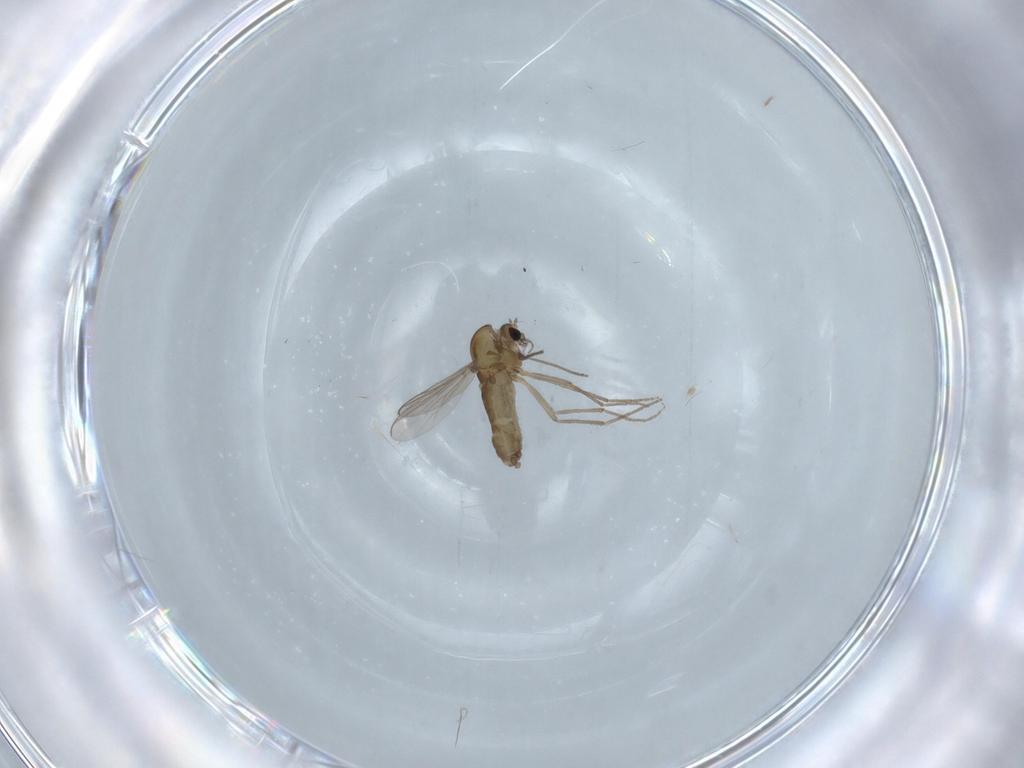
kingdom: Animalia
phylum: Arthropoda
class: Insecta
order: Diptera
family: Chironomidae
